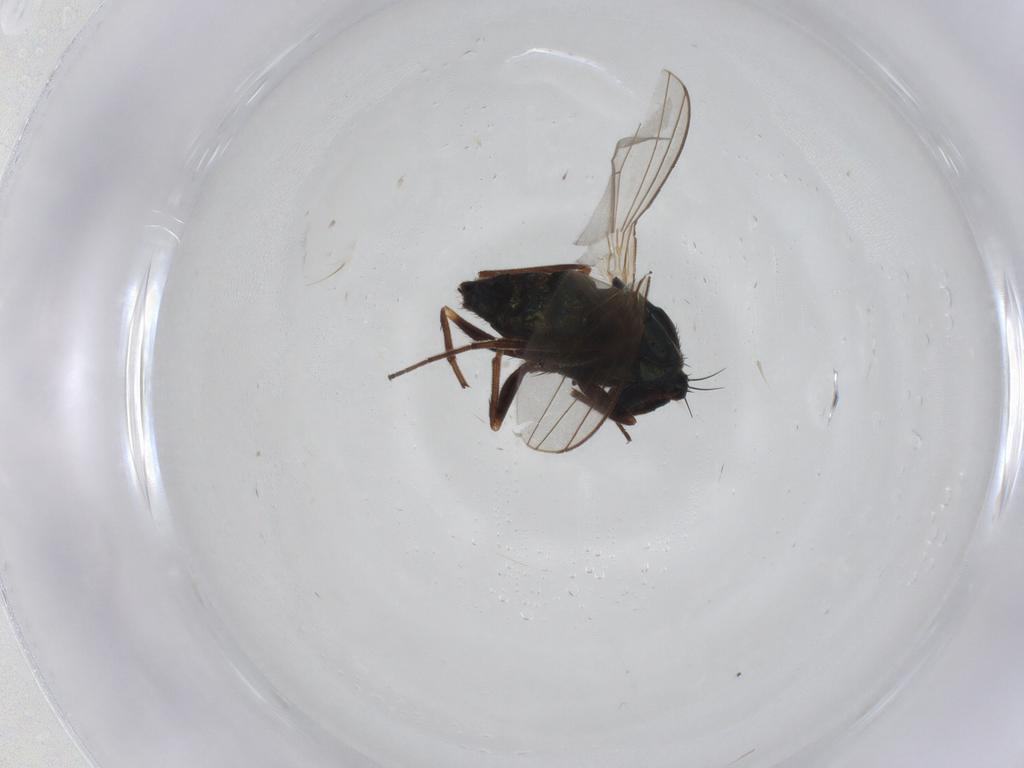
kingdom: Animalia
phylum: Arthropoda
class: Insecta
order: Diptera
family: Dolichopodidae
